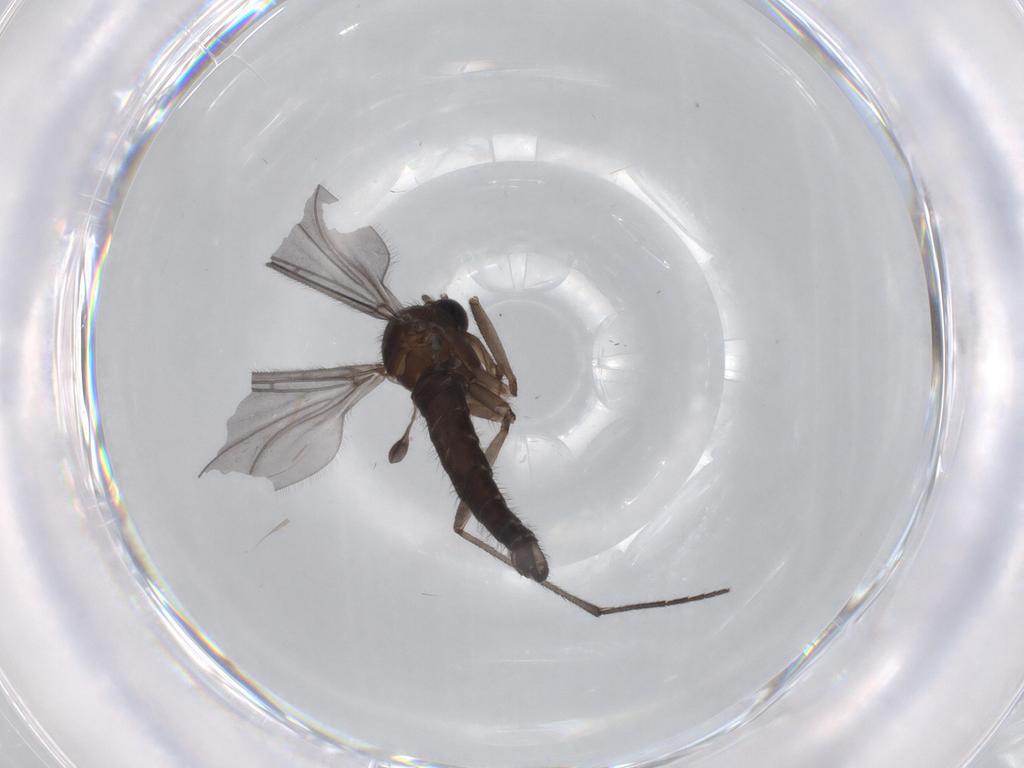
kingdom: Animalia
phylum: Arthropoda
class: Insecta
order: Diptera
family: Sciaridae
